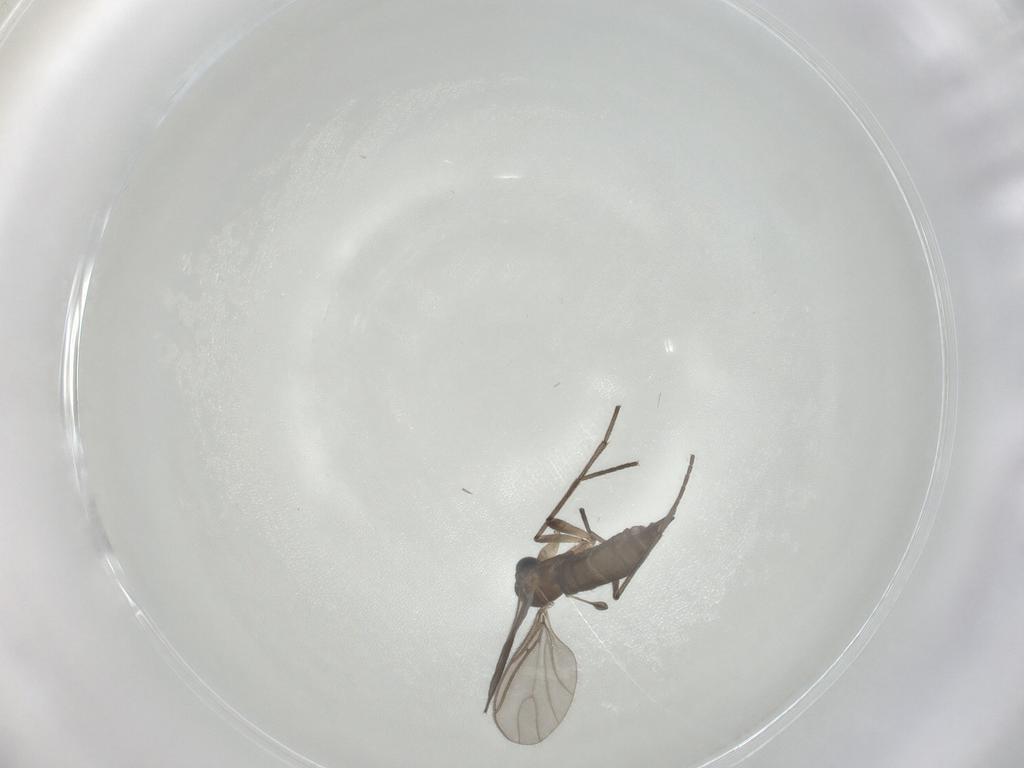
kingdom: Animalia
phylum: Arthropoda
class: Insecta
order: Diptera
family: Sciaridae
